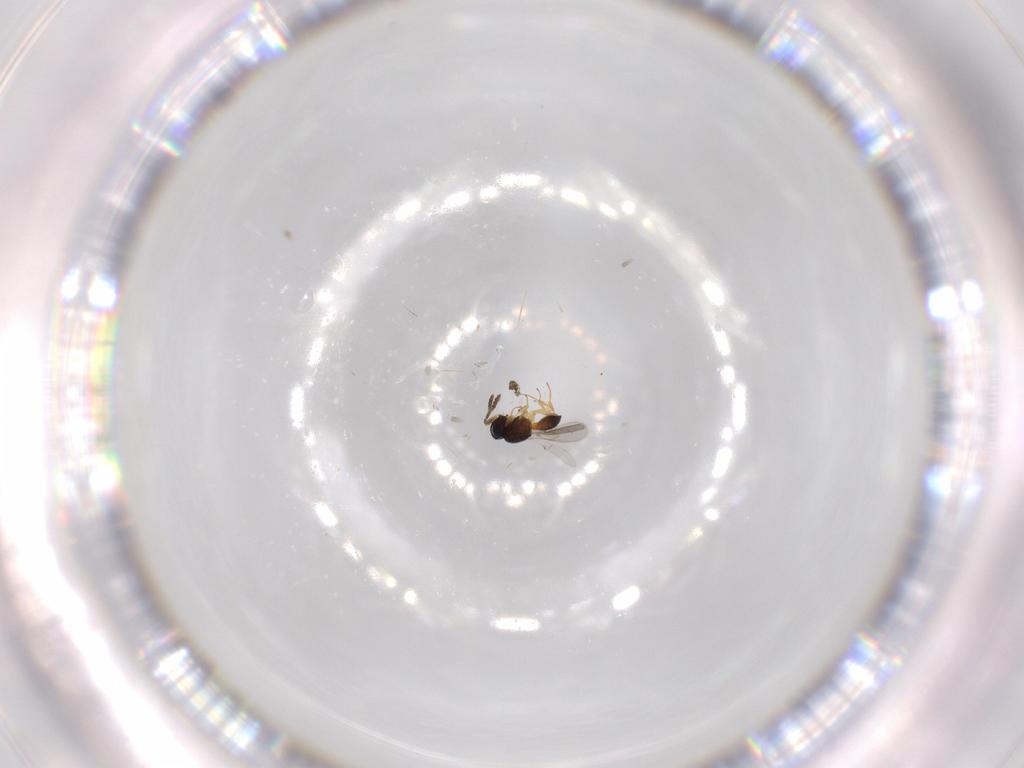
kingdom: Animalia
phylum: Arthropoda
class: Insecta
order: Hymenoptera
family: Scelionidae
